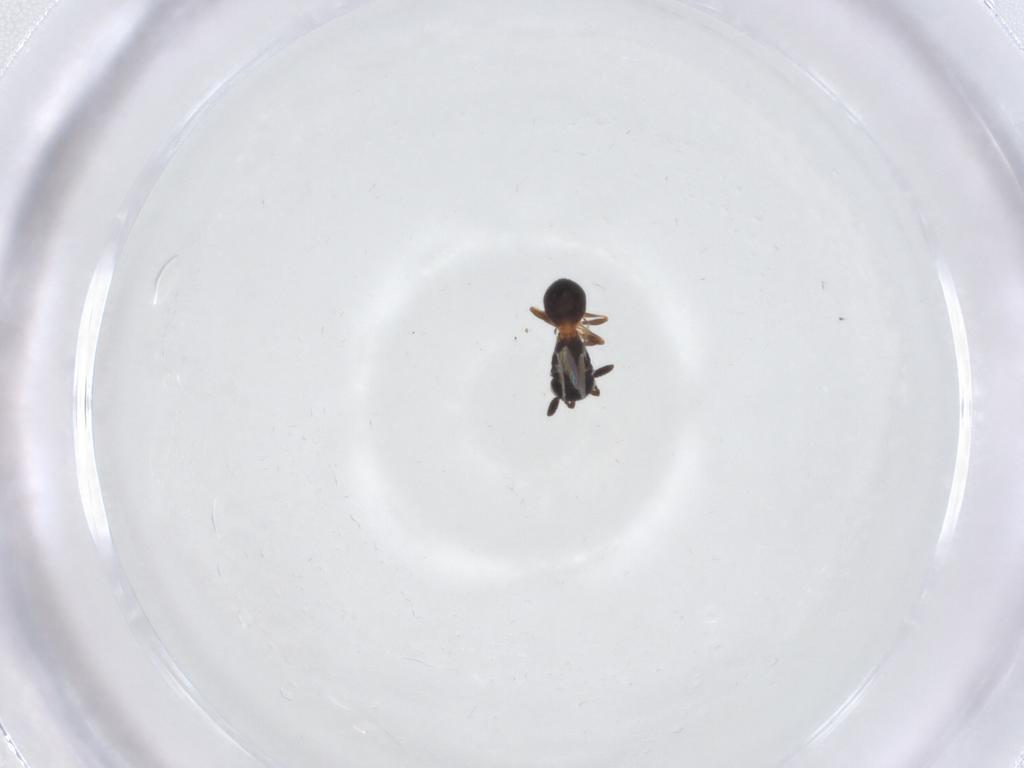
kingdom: Animalia
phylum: Arthropoda
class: Insecta
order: Hymenoptera
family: Scelionidae
